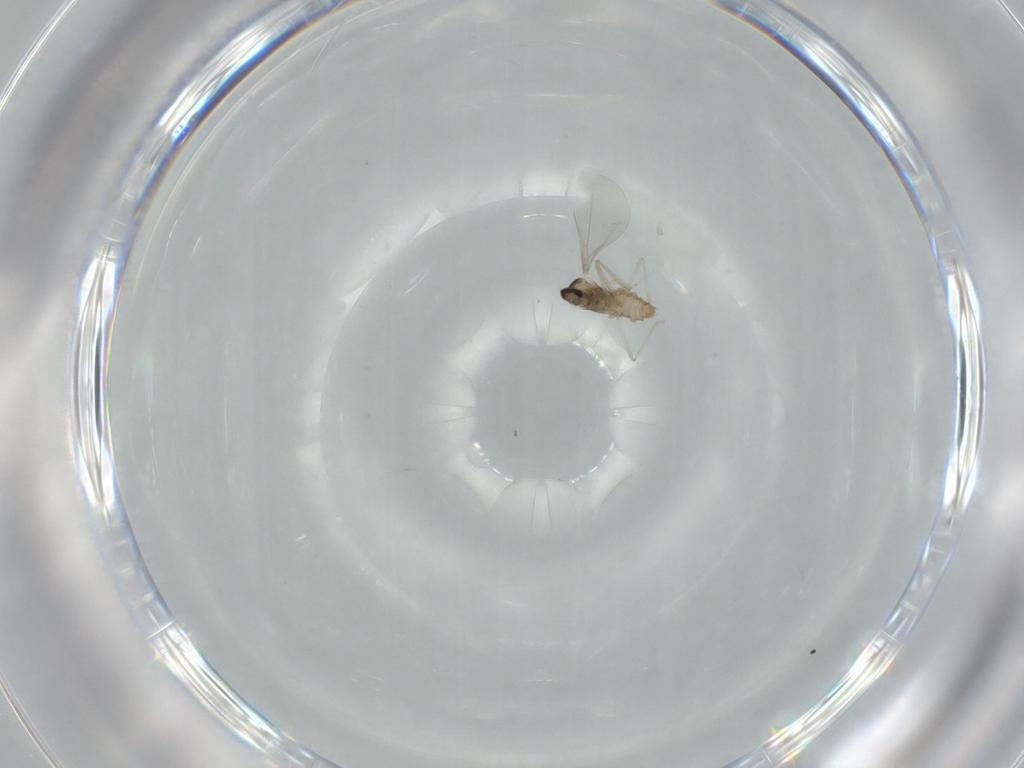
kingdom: Animalia
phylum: Arthropoda
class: Insecta
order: Diptera
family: Cecidomyiidae
